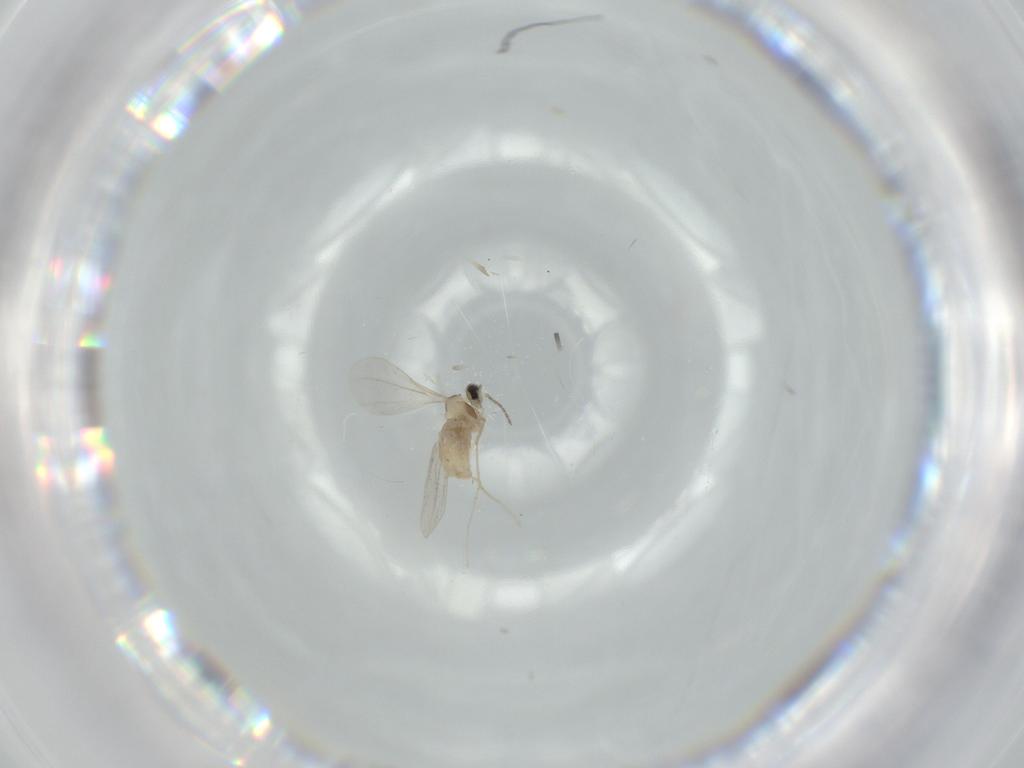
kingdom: Animalia
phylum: Arthropoda
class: Insecta
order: Diptera
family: Cecidomyiidae
